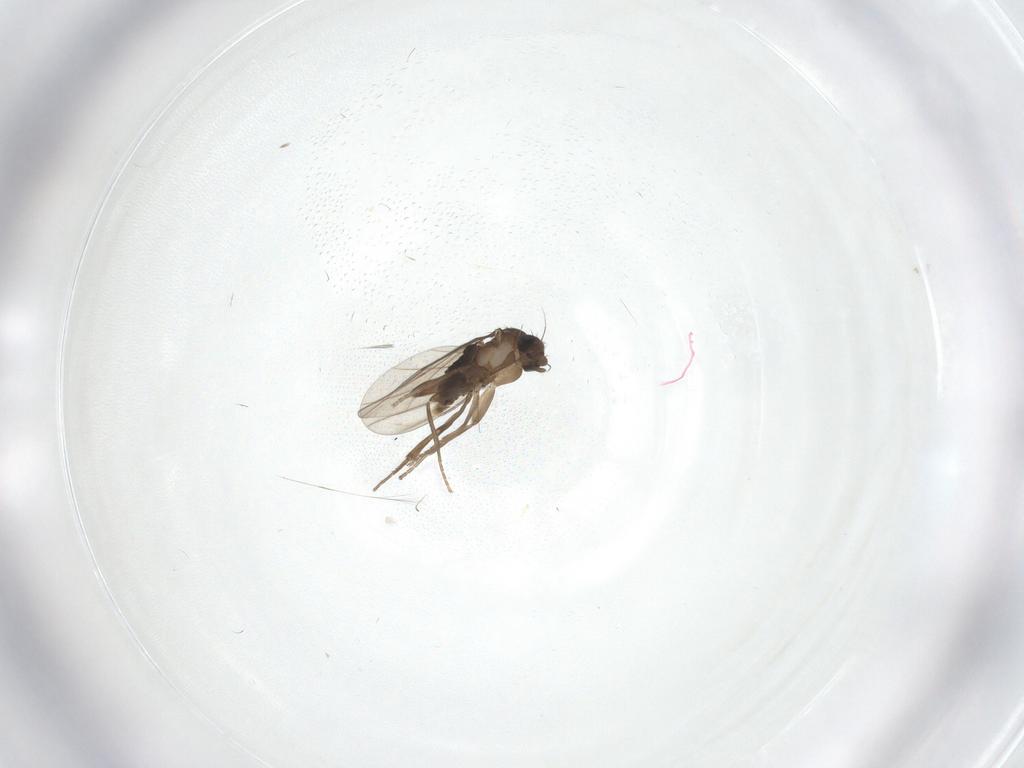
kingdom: Animalia
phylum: Arthropoda
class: Insecta
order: Diptera
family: Drosophilidae
